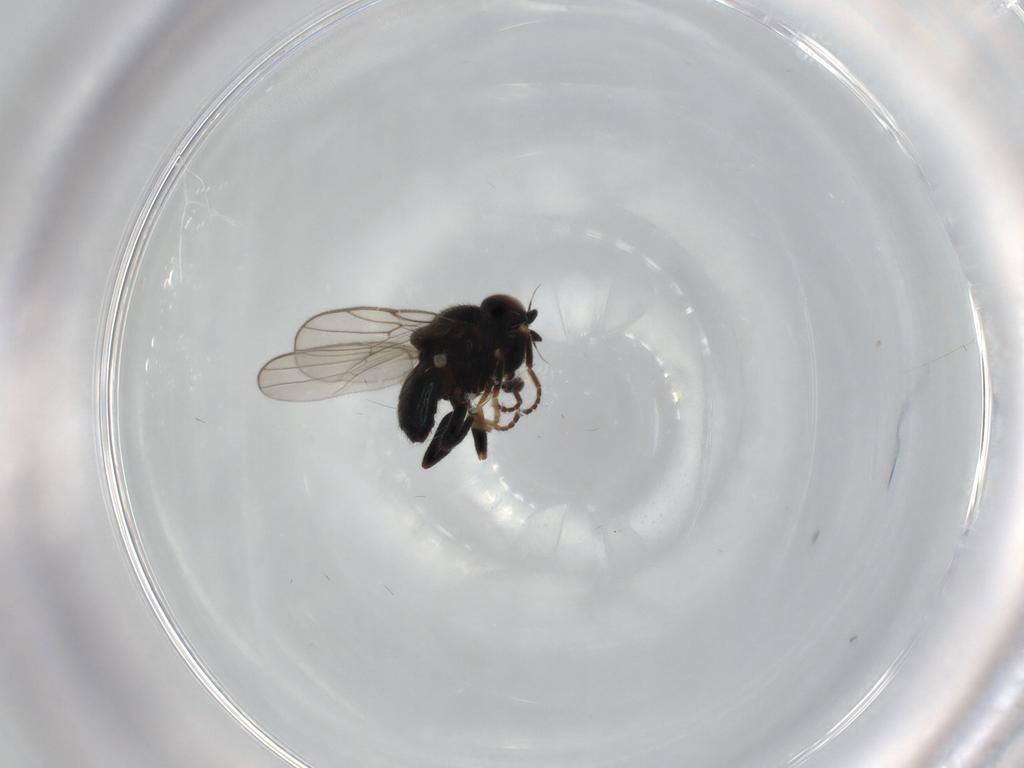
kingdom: Animalia
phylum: Arthropoda
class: Insecta
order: Diptera
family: Chloropidae
